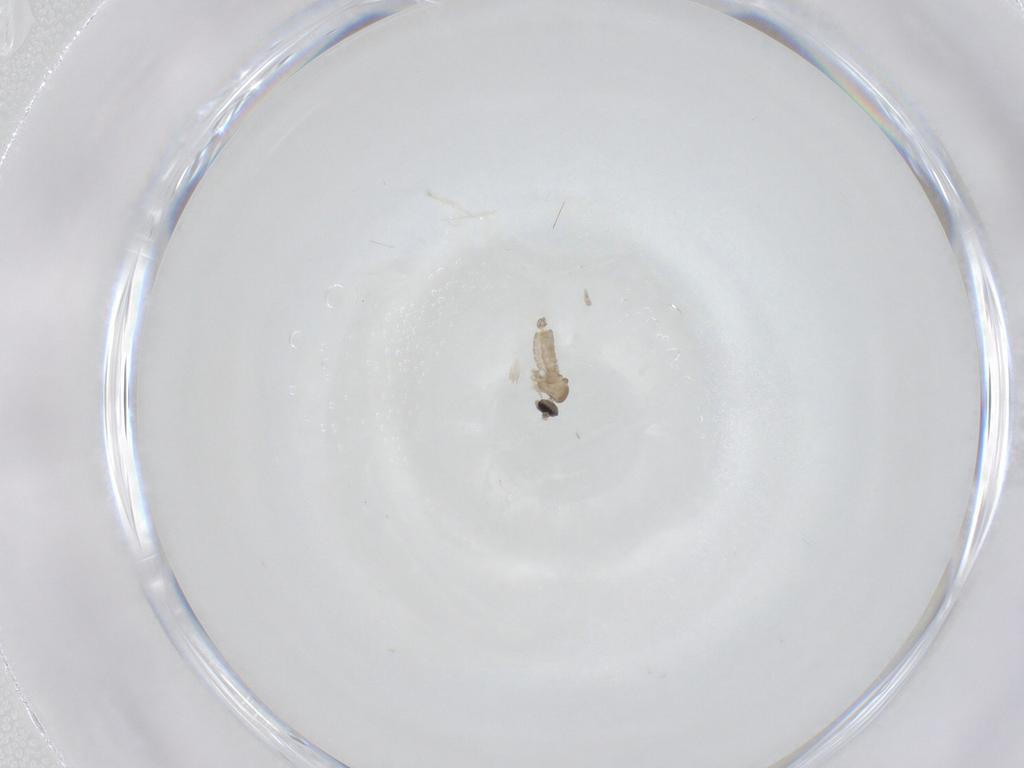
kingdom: Animalia
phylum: Arthropoda
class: Insecta
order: Diptera
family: Cecidomyiidae
